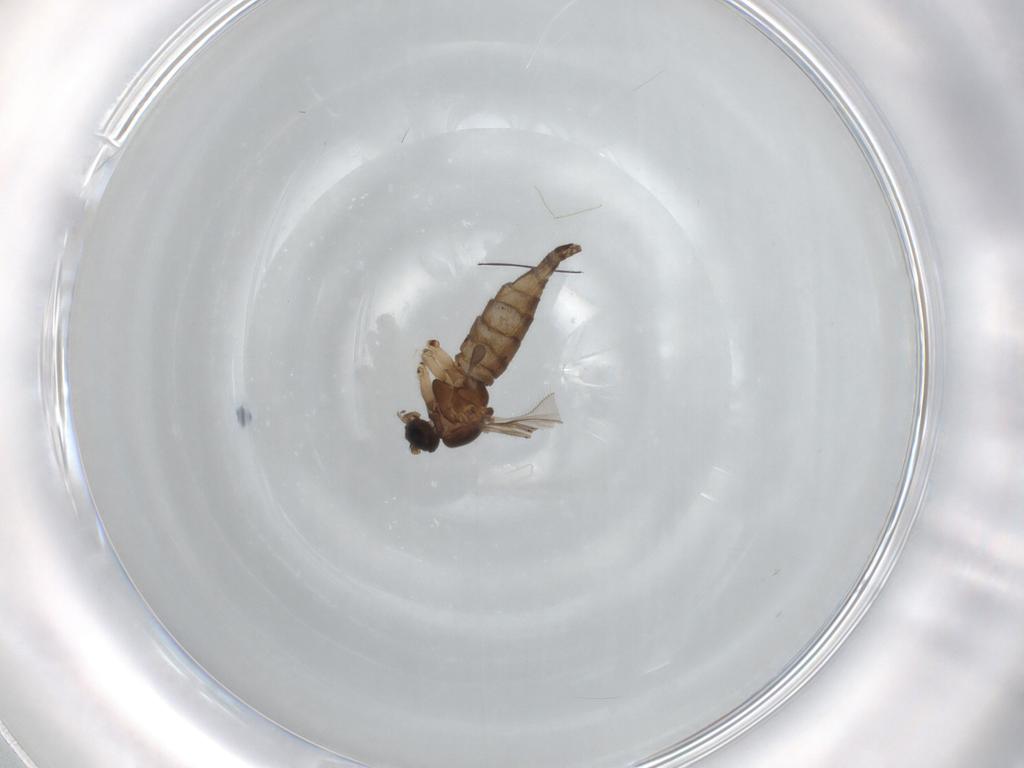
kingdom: Animalia
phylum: Arthropoda
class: Insecta
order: Diptera
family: Sciaridae
